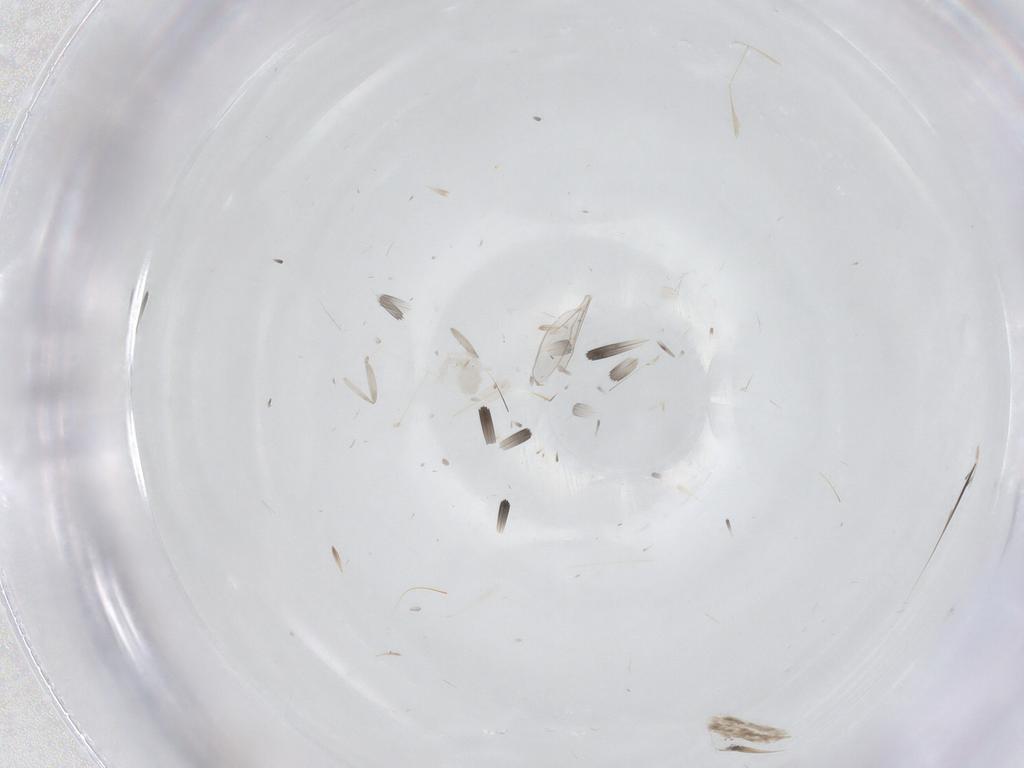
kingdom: Animalia
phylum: Arthropoda
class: Insecta
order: Diptera
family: Cecidomyiidae
